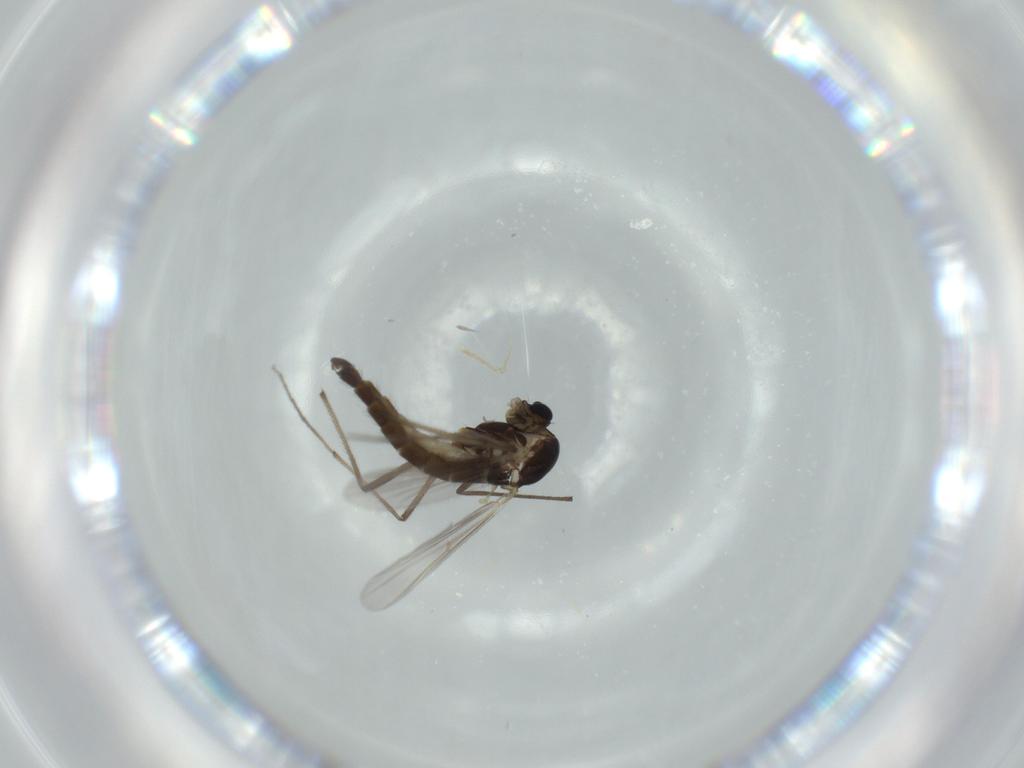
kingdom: Animalia
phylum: Arthropoda
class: Insecta
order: Diptera
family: Chironomidae
